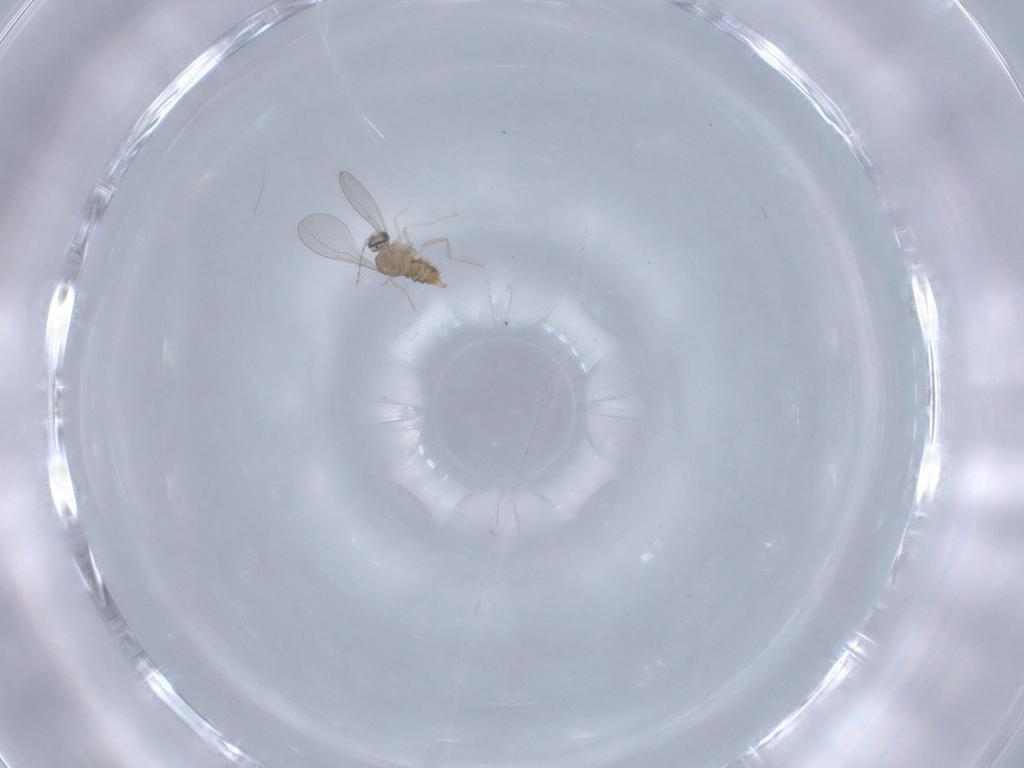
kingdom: Animalia
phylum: Arthropoda
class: Insecta
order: Diptera
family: Cecidomyiidae
